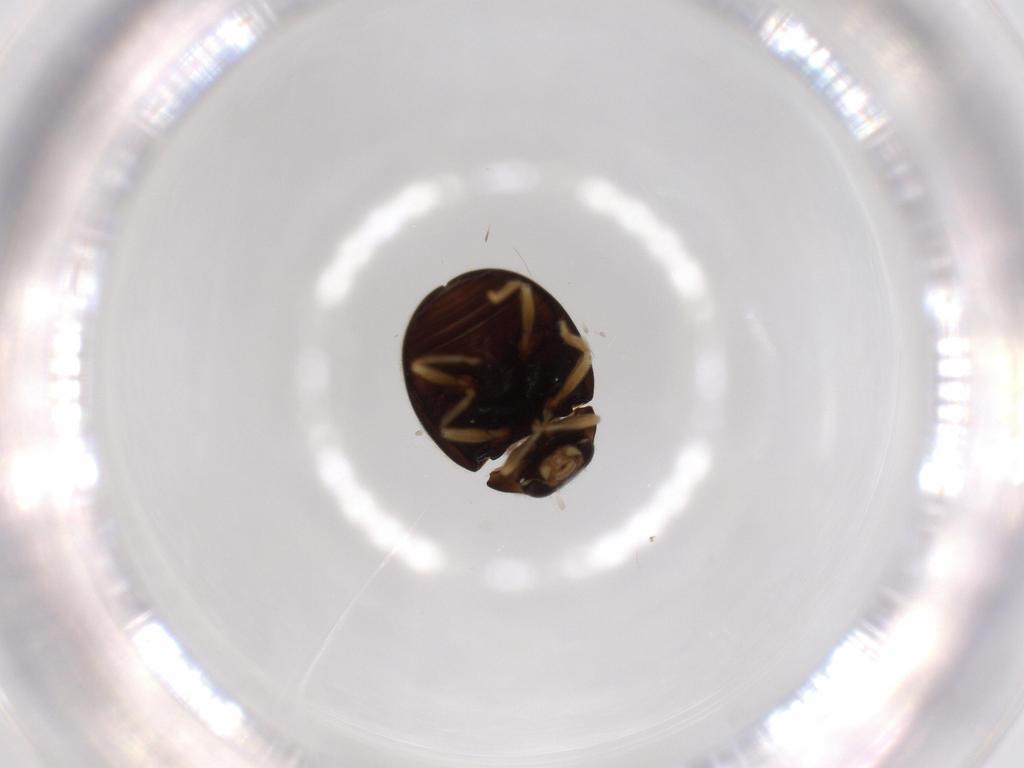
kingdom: Animalia
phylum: Arthropoda
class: Insecta
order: Coleoptera
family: Coccinellidae
